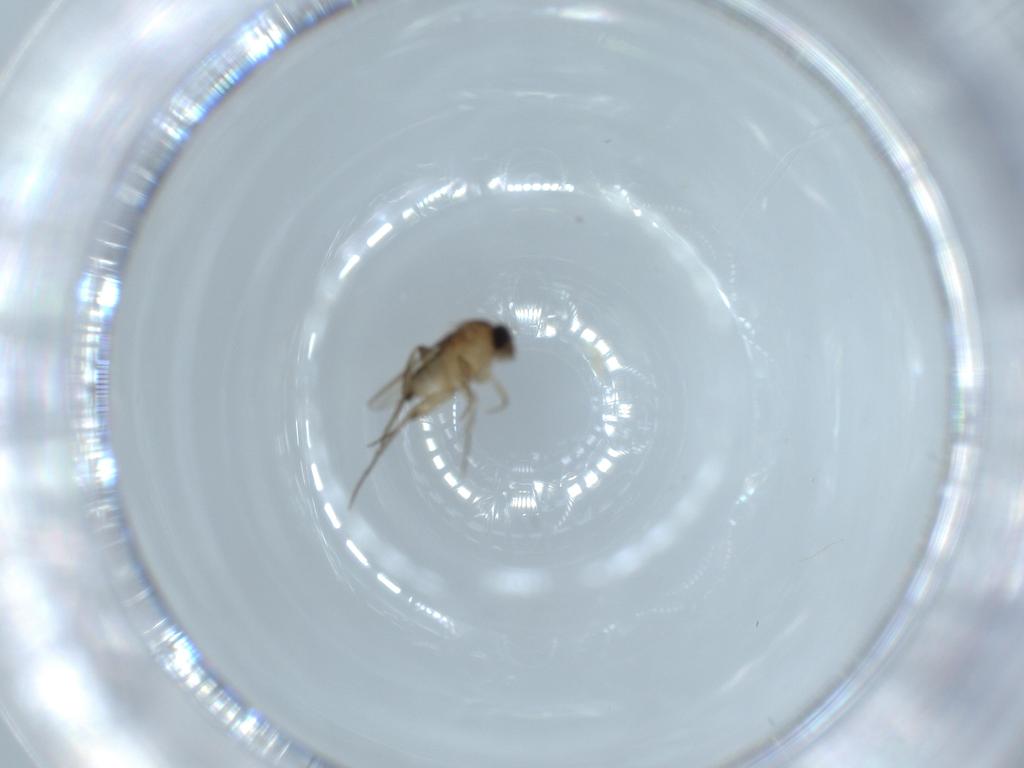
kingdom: Animalia
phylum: Arthropoda
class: Insecta
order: Diptera
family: Phoridae
